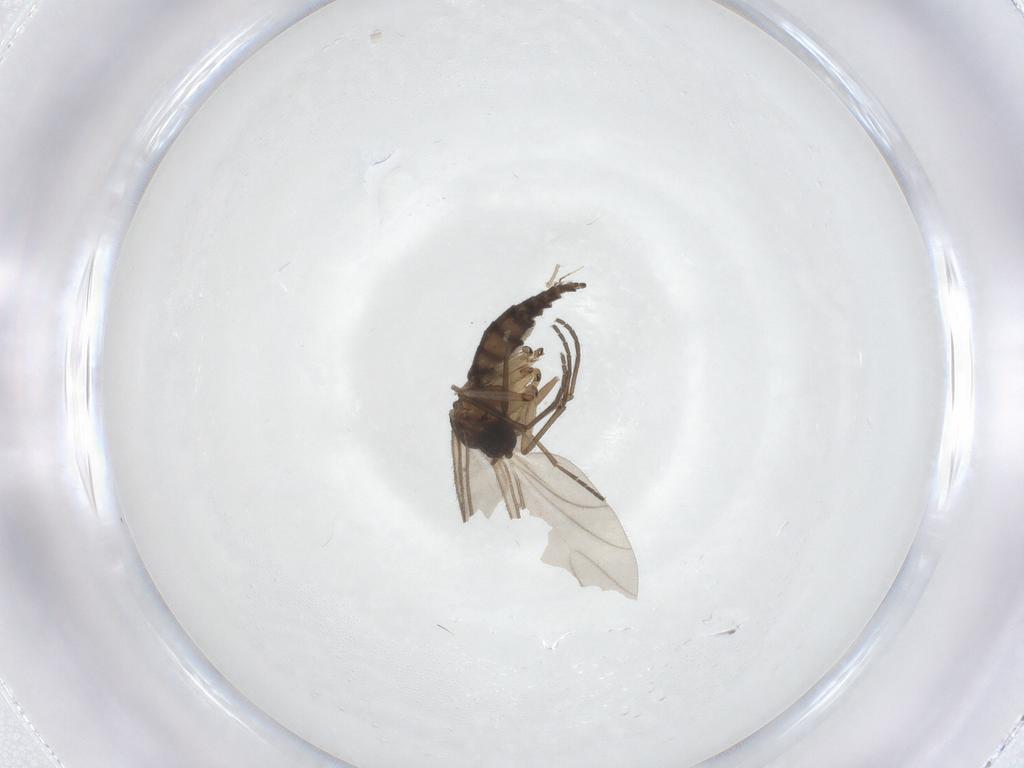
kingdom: Animalia
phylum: Arthropoda
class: Insecta
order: Diptera
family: Sciaridae
